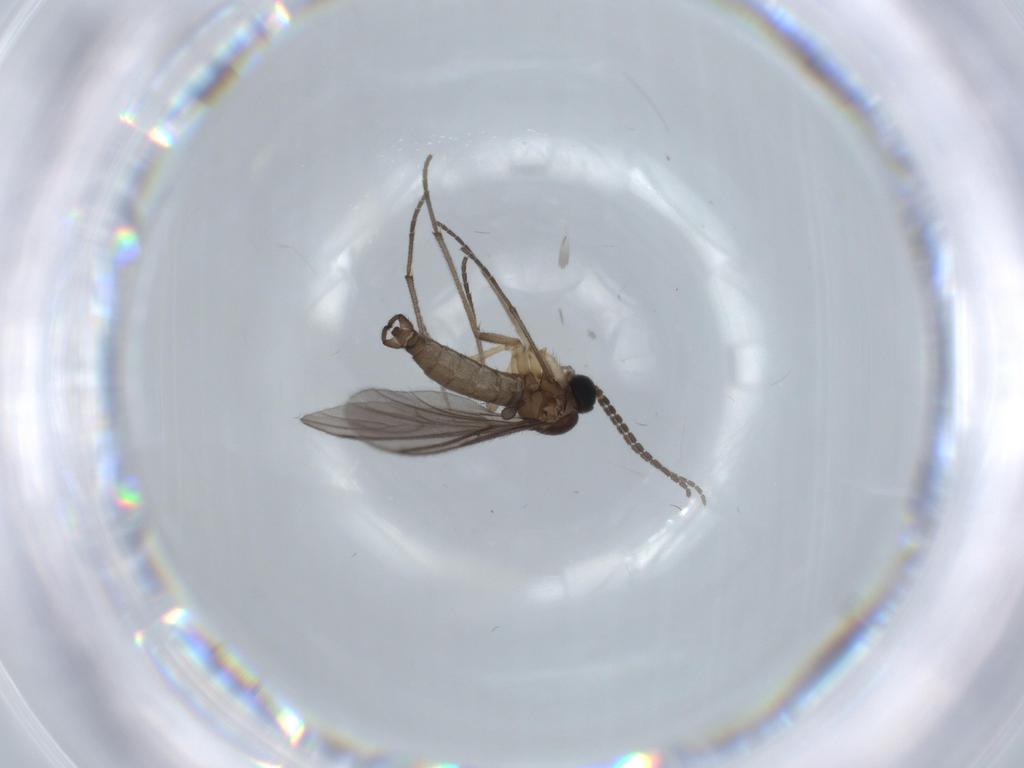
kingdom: Animalia
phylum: Arthropoda
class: Insecta
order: Diptera
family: Sciaridae
